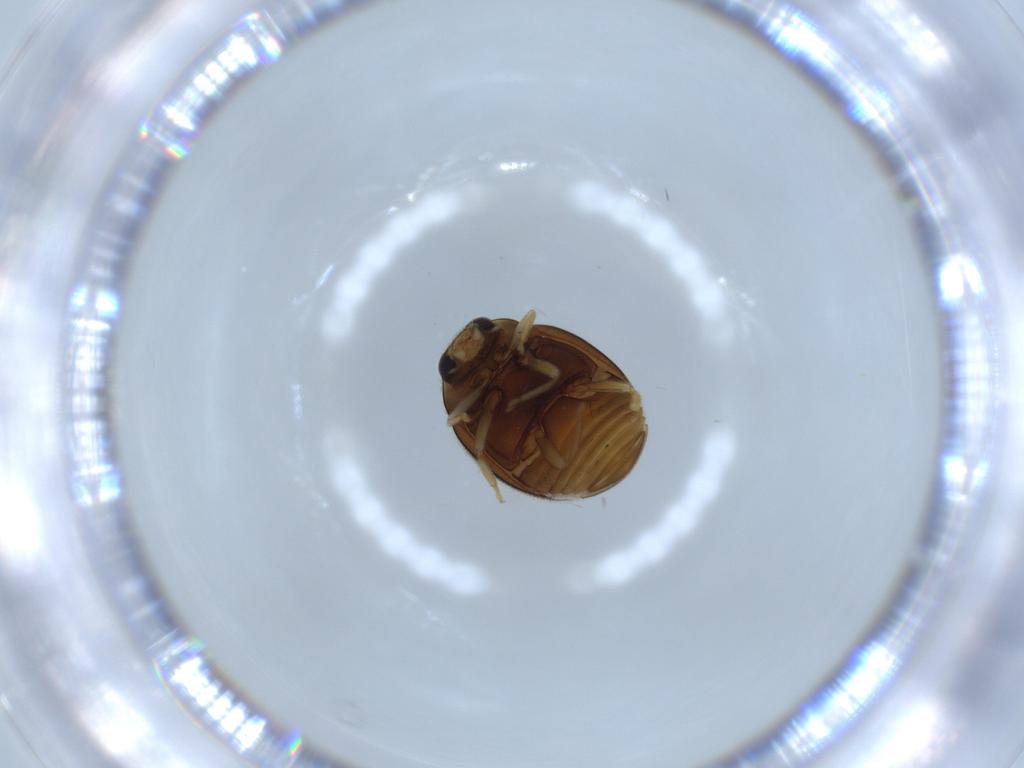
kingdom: Animalia
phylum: Arthropoda
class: Insecta
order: Coleoptera
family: Coccinellidae
